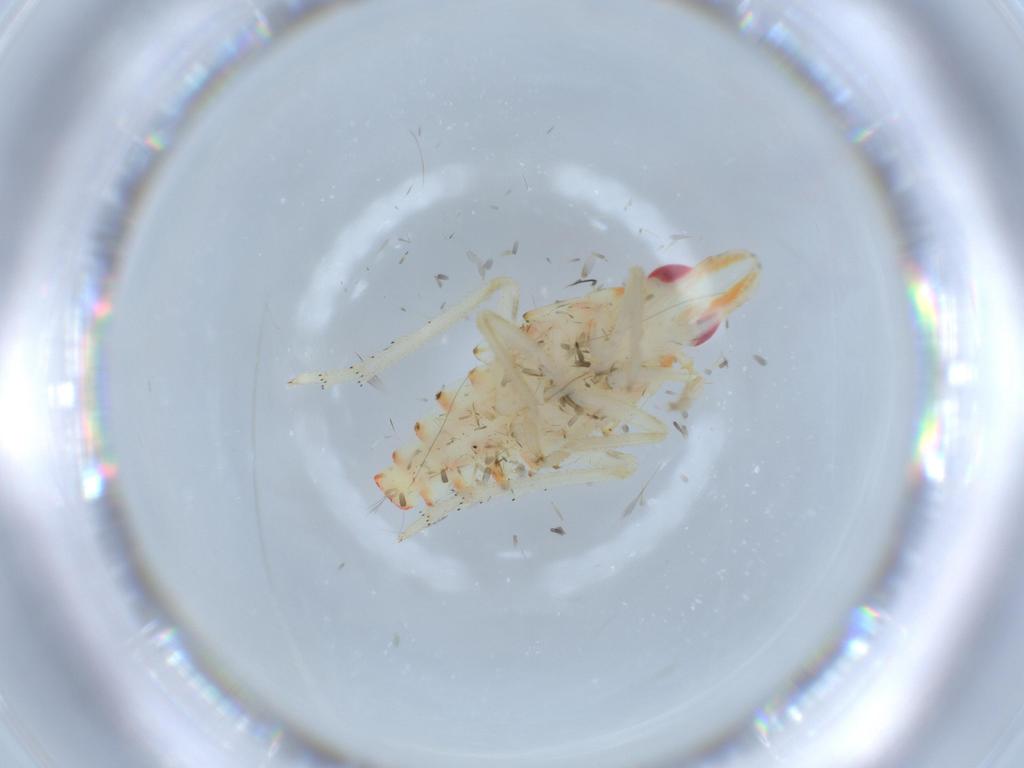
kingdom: Animalia
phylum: Arthropoda
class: Insecta
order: Hemiptera
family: Tropiduchidae
